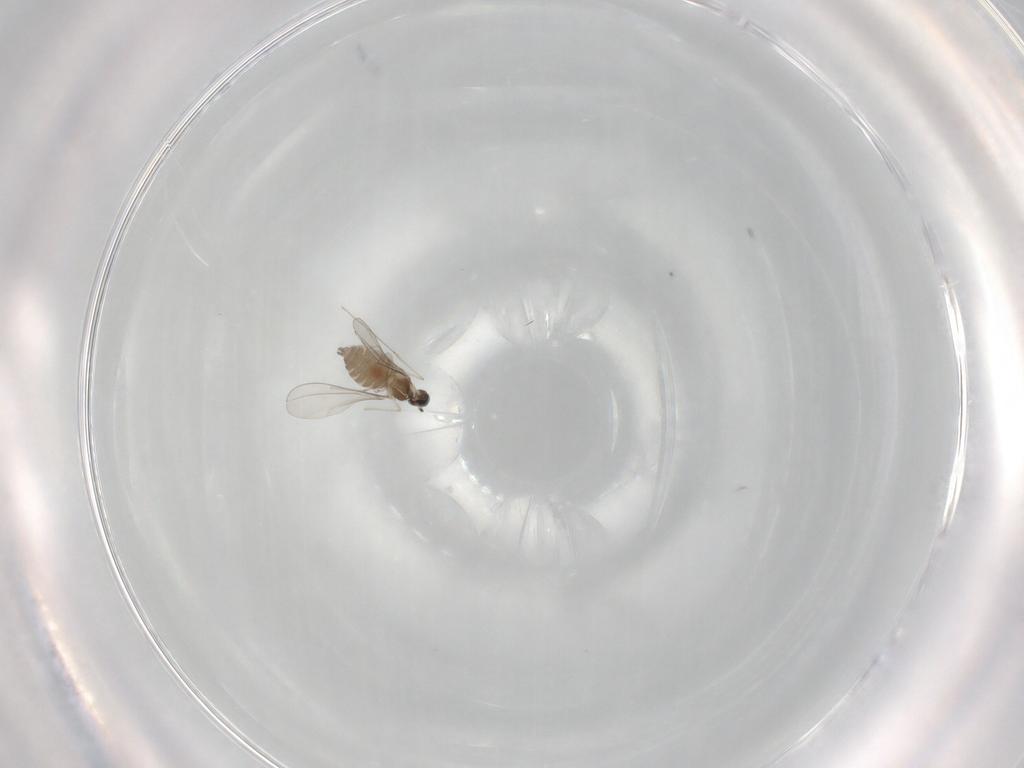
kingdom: Animalia
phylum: Arthropoda
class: Insecta
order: Diptera
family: Cecidomyiidae
